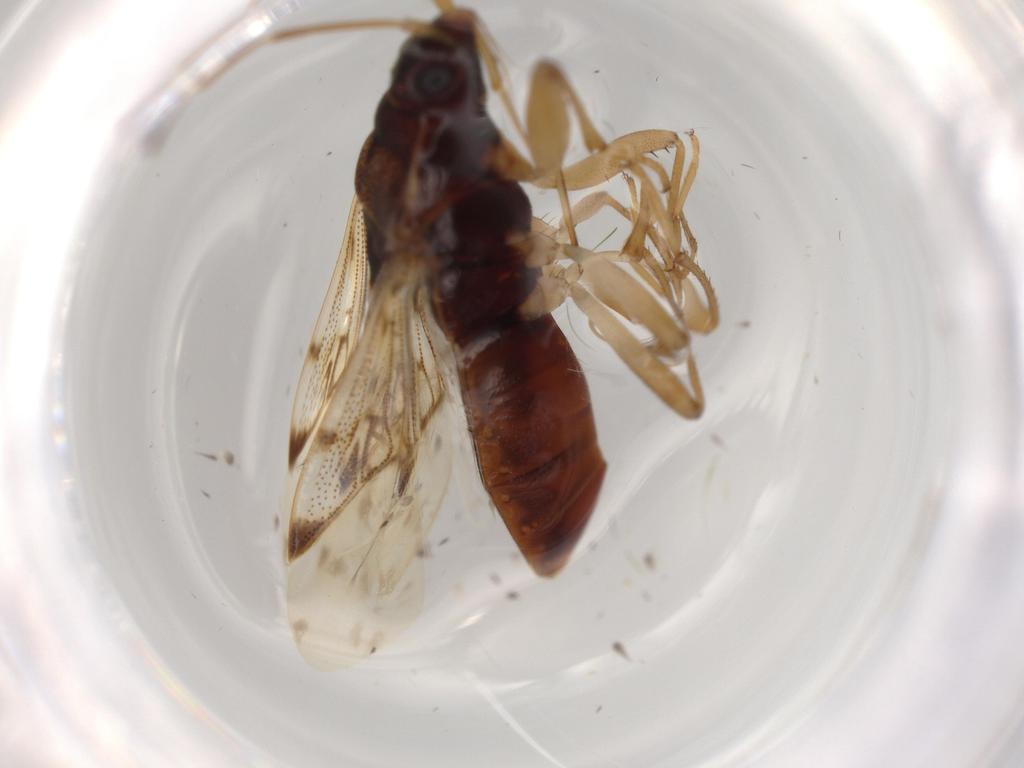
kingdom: Animalia
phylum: Arthropoda
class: Insecta
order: Hemiptera
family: Rhyparochromidae
